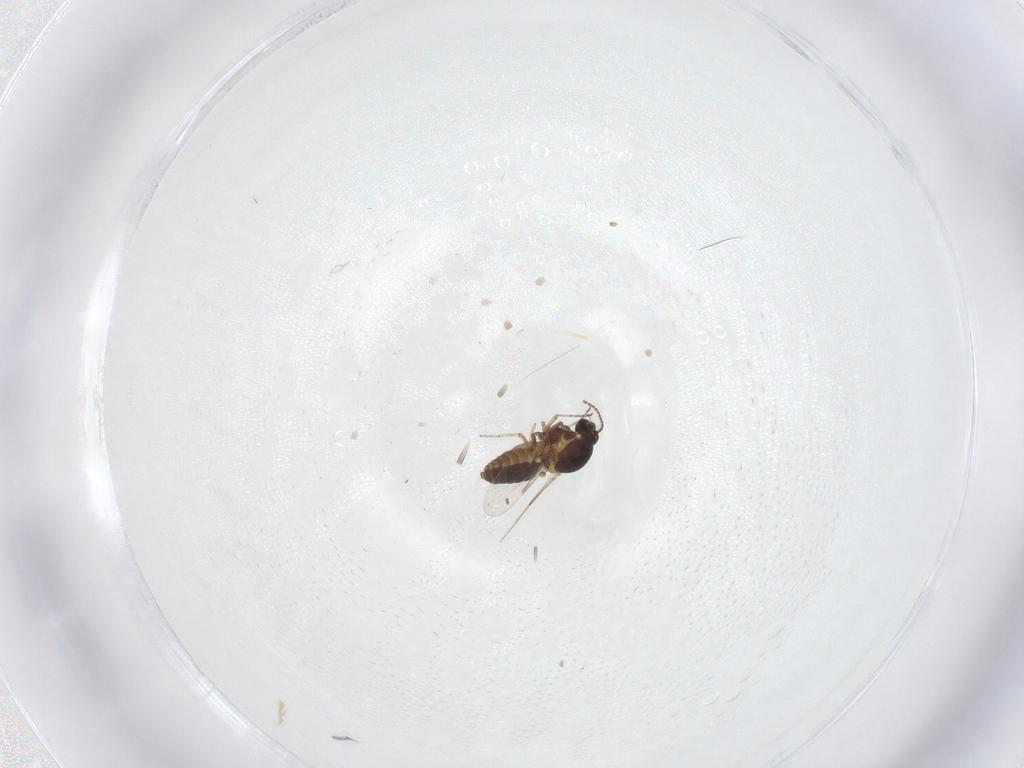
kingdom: Animalia
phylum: Arthropoda
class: Insecta
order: Diptera
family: Ceratopogonidae
